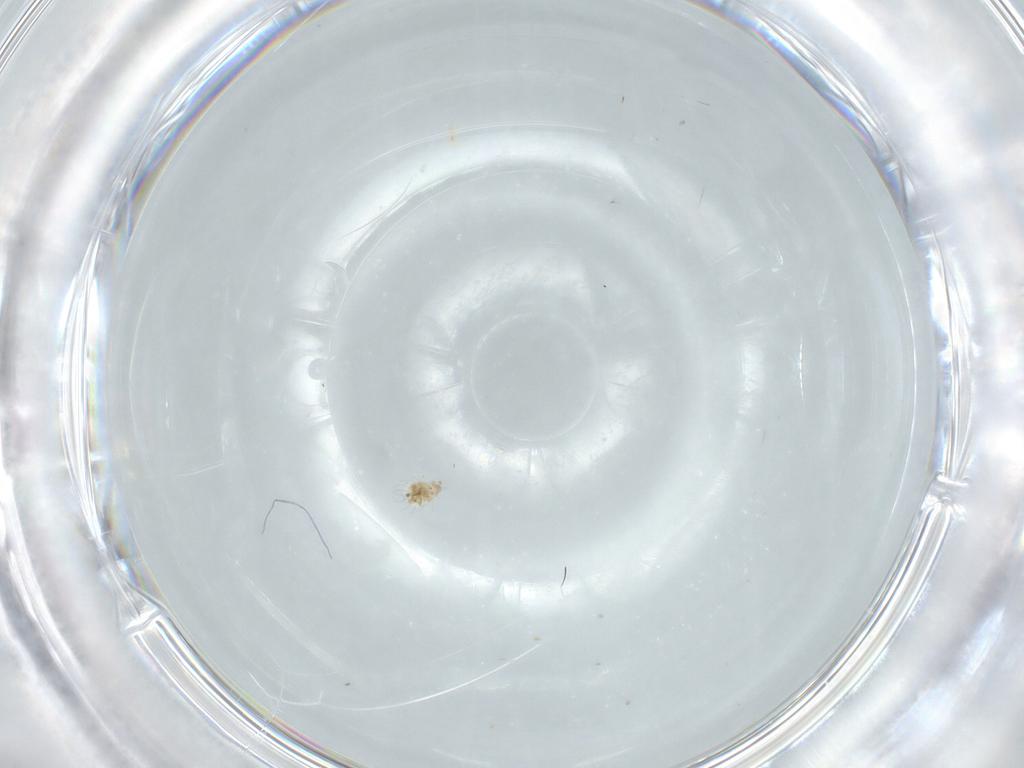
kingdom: Animalia
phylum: Arthropoda
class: Arachnida
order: Sarcoptiformes
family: Mochlozetidae
